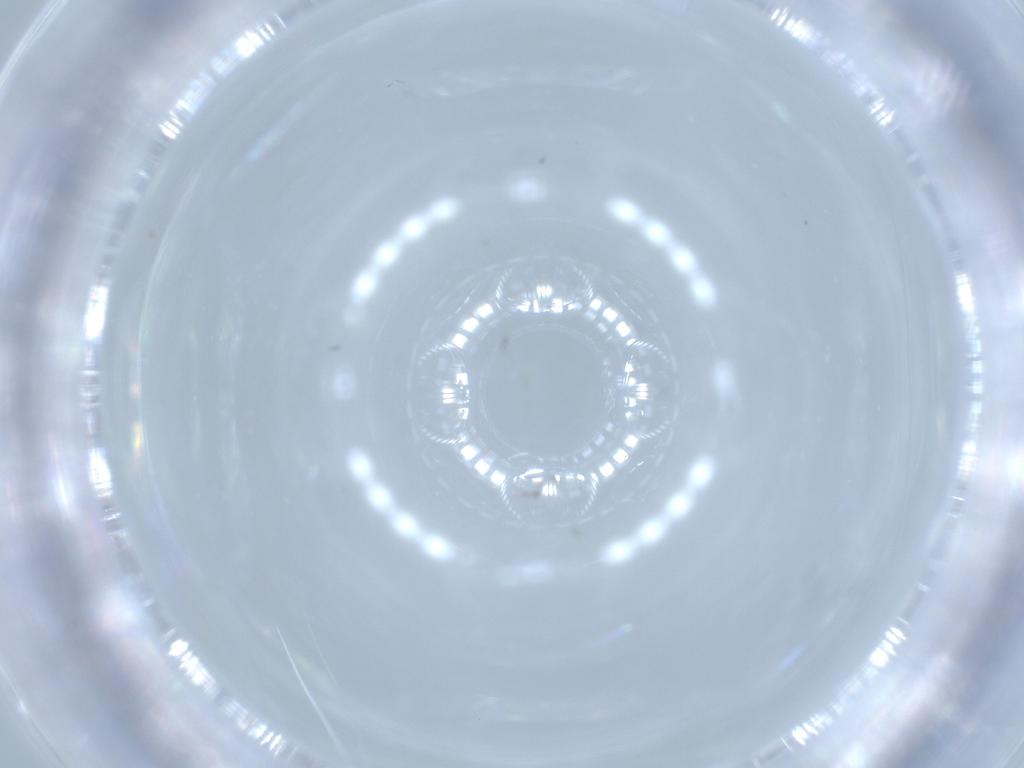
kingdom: Animalia
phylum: Arthropoda
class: Insecta
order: Diptera
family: Chironomidae
